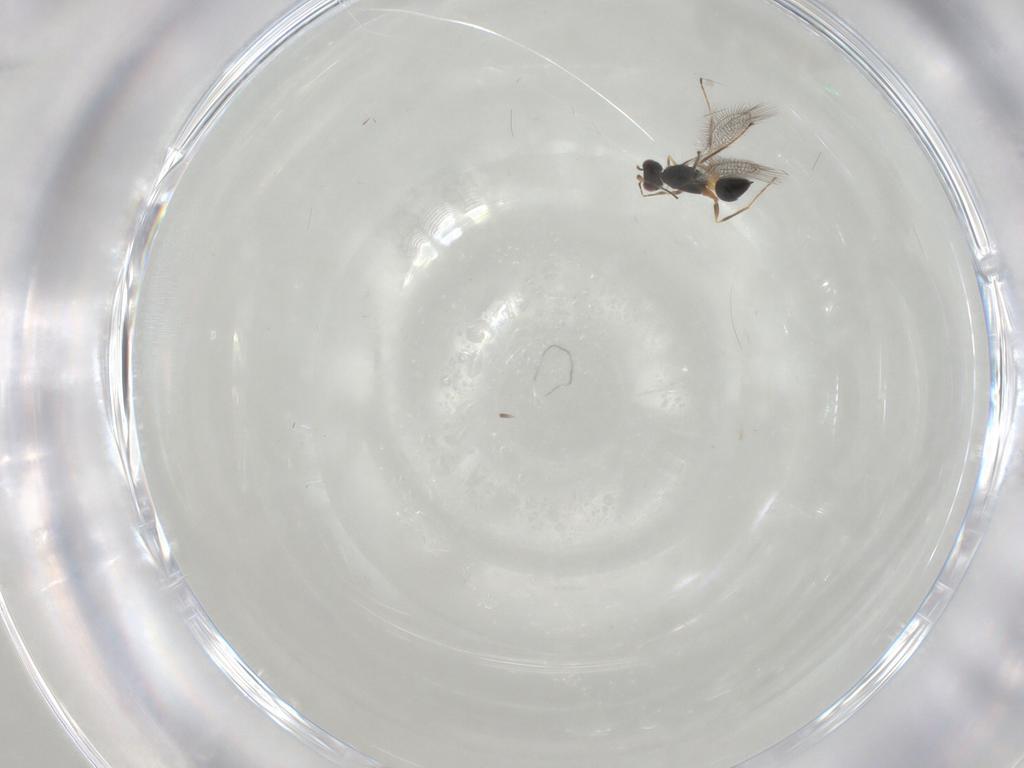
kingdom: Animalia
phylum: Arthropoda
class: Insecta
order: Hymenoptera
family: Mymaridae
